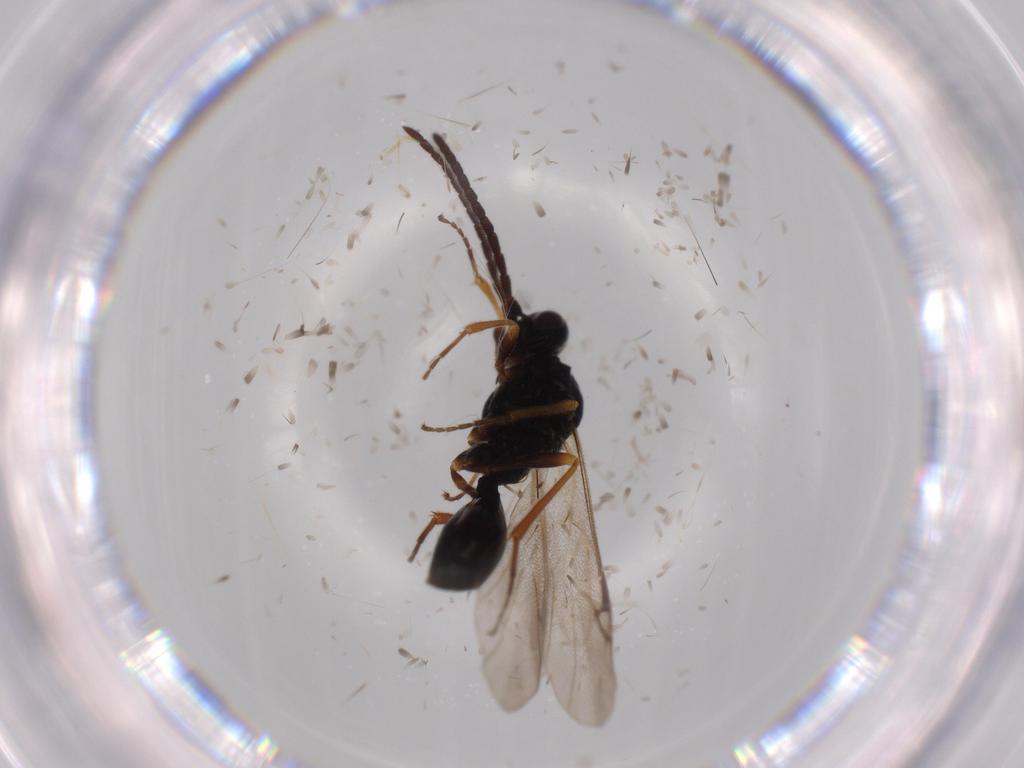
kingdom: Animalia
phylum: Arthropoda
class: Insecta
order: Hymenoptera
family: Proctotrupidae
